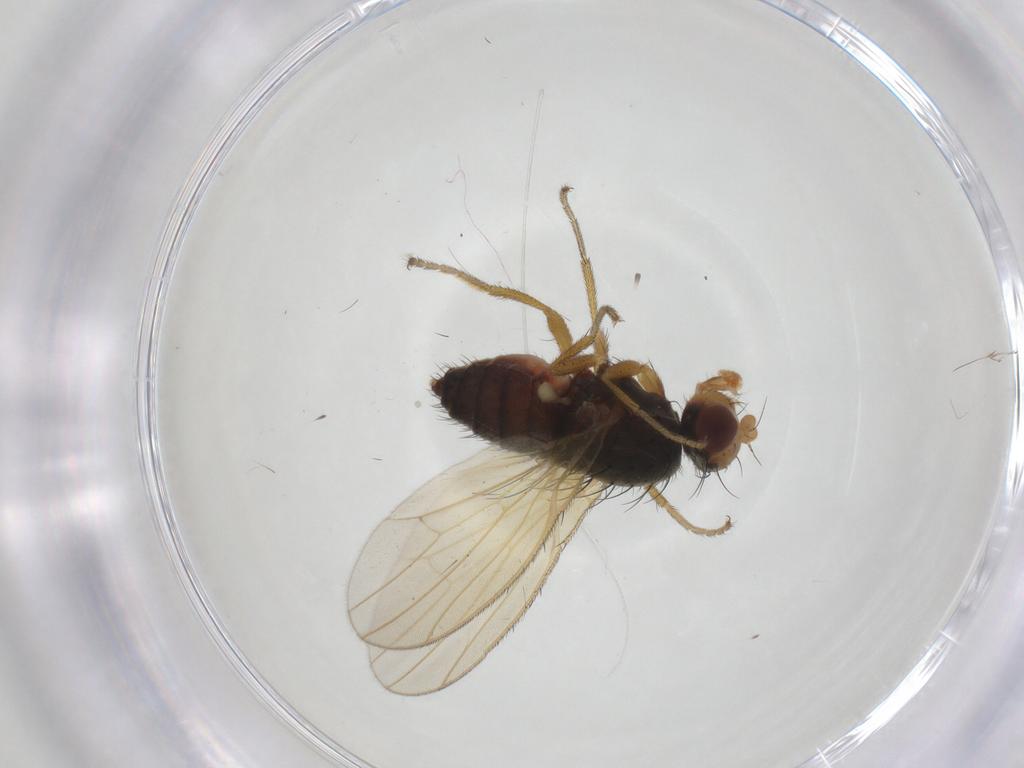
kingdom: Animalia
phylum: Arthropoda
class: Insecta
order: Diptera
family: Heleomyzidae
